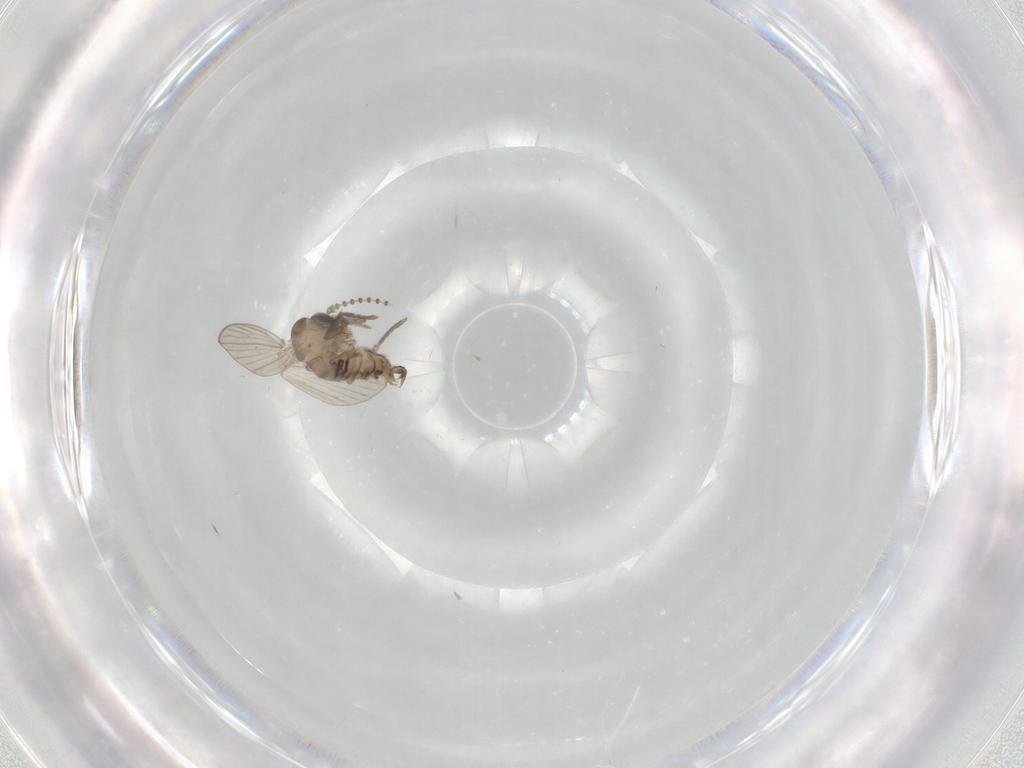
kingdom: Animalia
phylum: Arthropoda
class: Insecta
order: Diptera
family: Psychodidae
